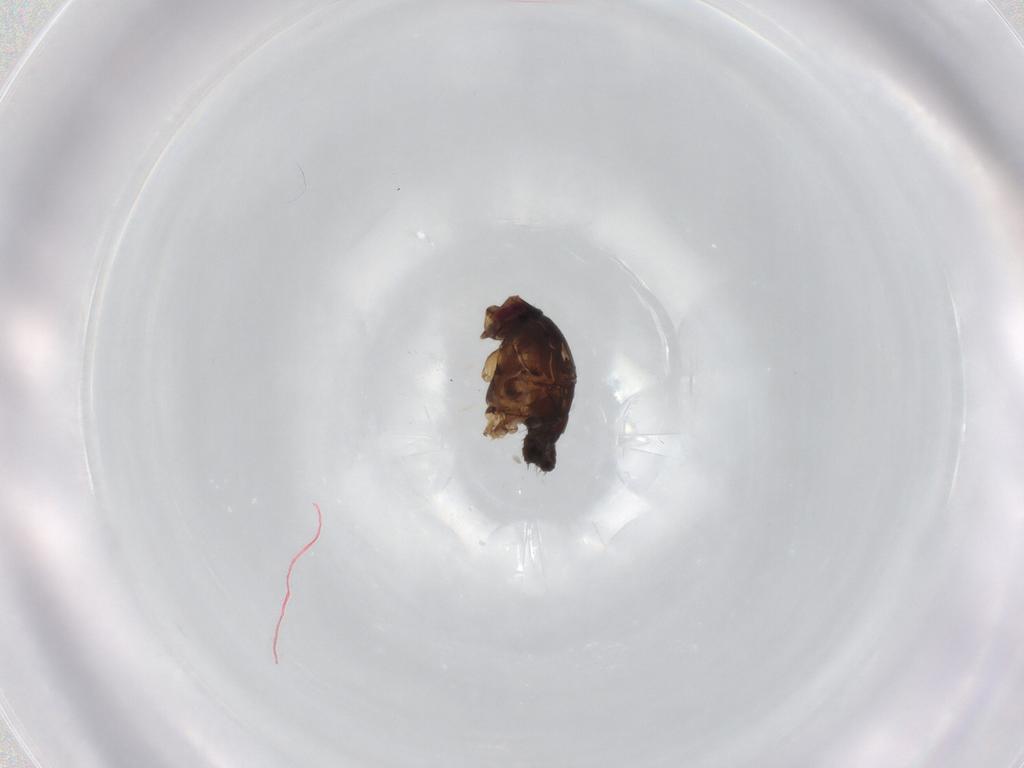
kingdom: Animalia
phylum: Arthropoda
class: Insecta
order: Diptera
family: Sphaeroceridae
